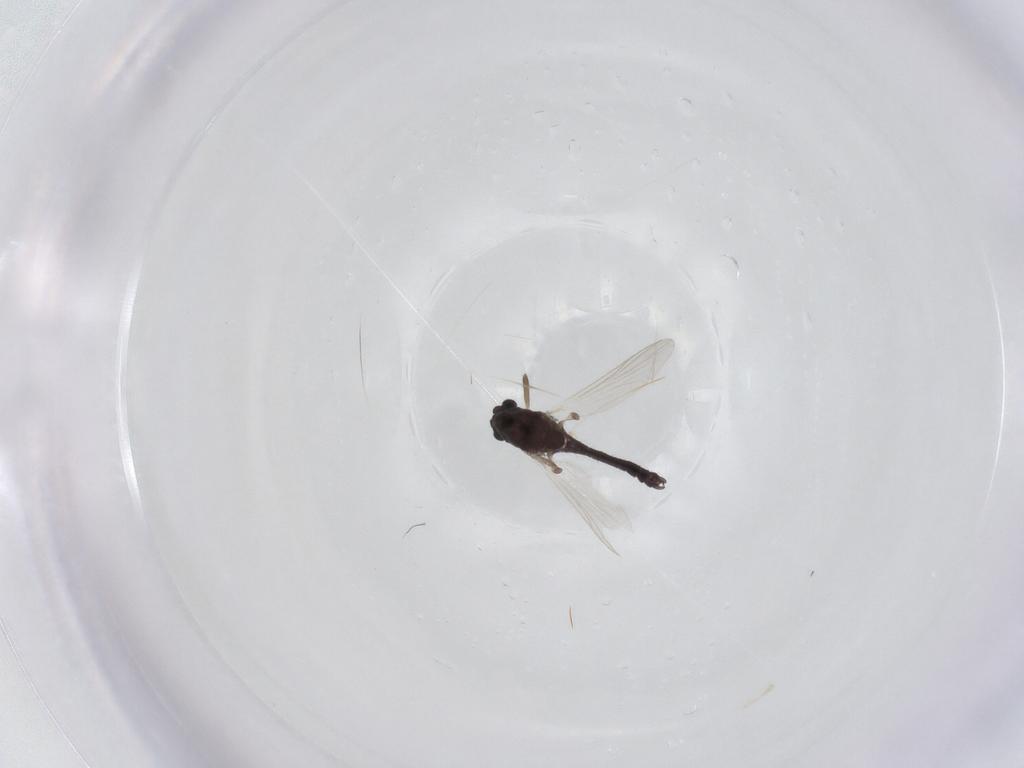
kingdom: Animalia
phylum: Arthropoda
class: Insecta
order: Diptera
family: Chironomidae
